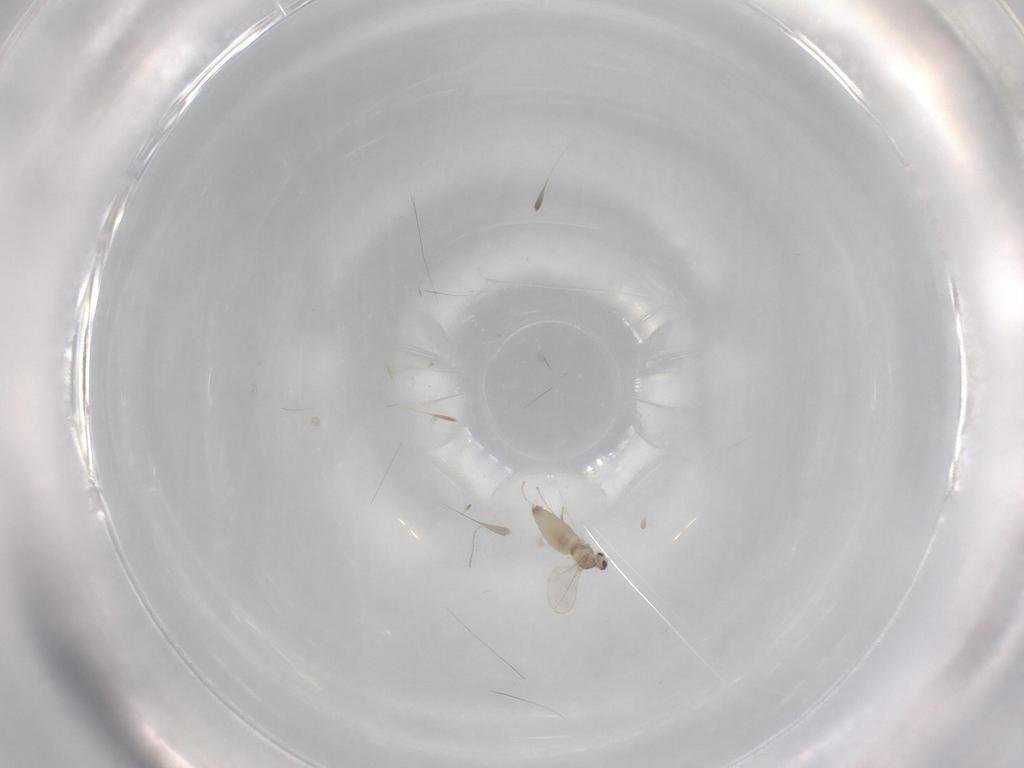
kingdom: Animalia
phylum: Arthropoda
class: Insecta
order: Diptera
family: Cecidomyiidae
